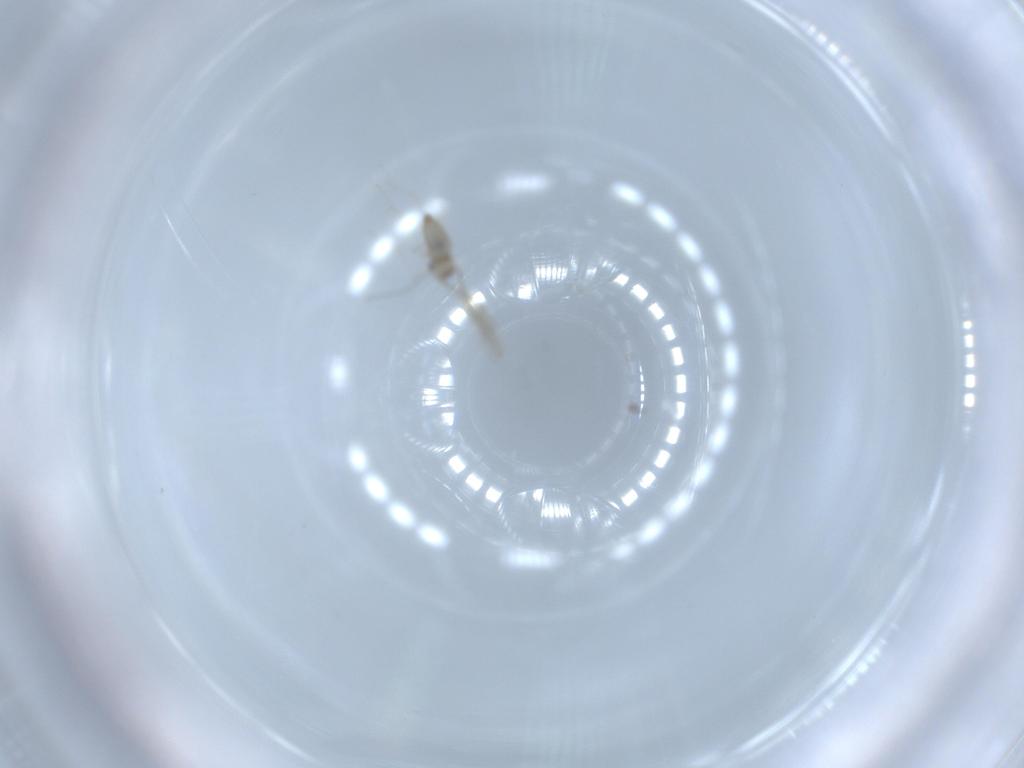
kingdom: Animalia
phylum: Arthropoda
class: Insecta
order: Diptera
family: Cecidomyiidae
